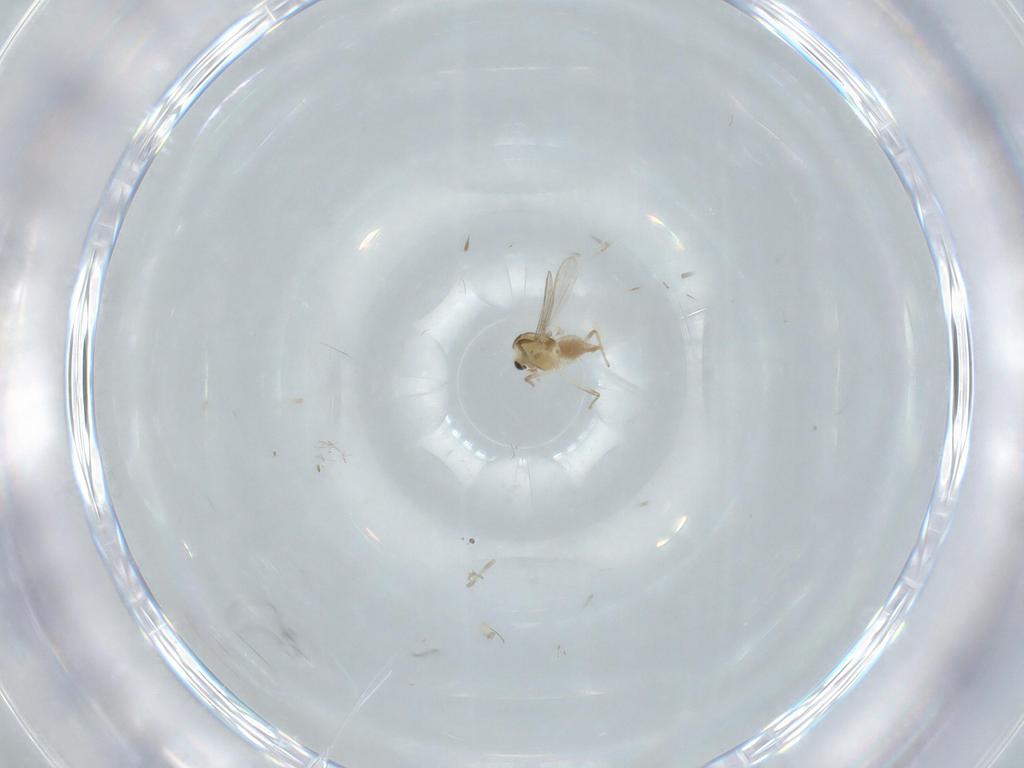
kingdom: Animalia
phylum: Arthropoda
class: Insecta
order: Diptera
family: Chironomidae
